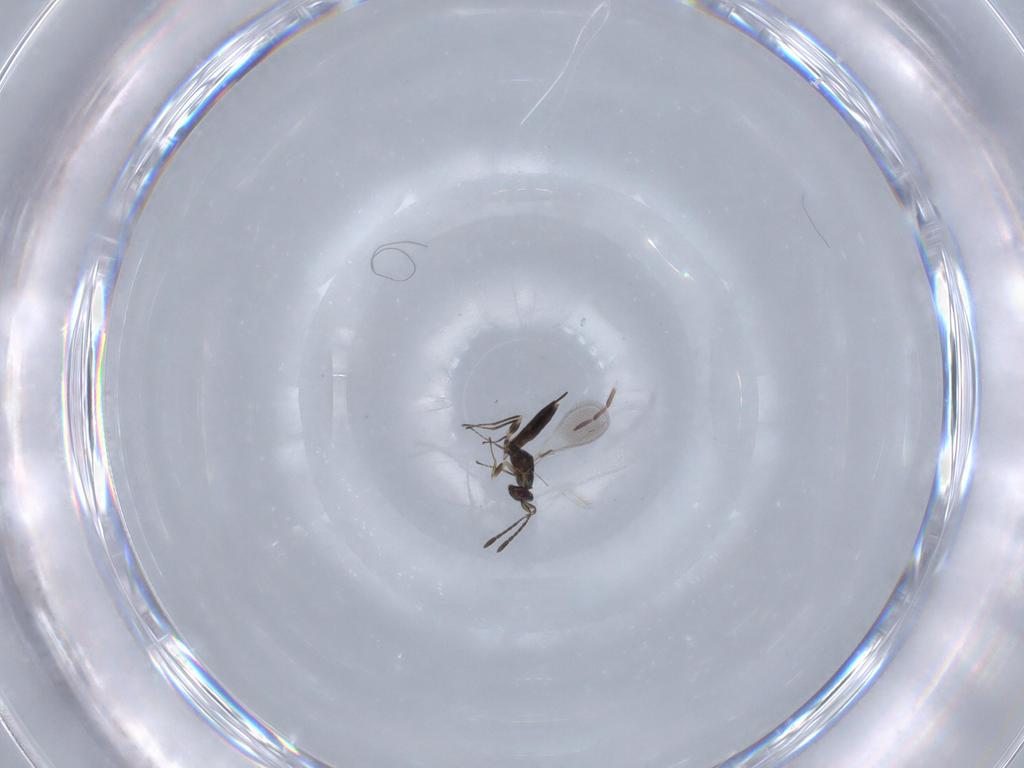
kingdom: Animalia
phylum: Arthropoda
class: Insecta
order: Hymenoptera
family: Mymaridae
